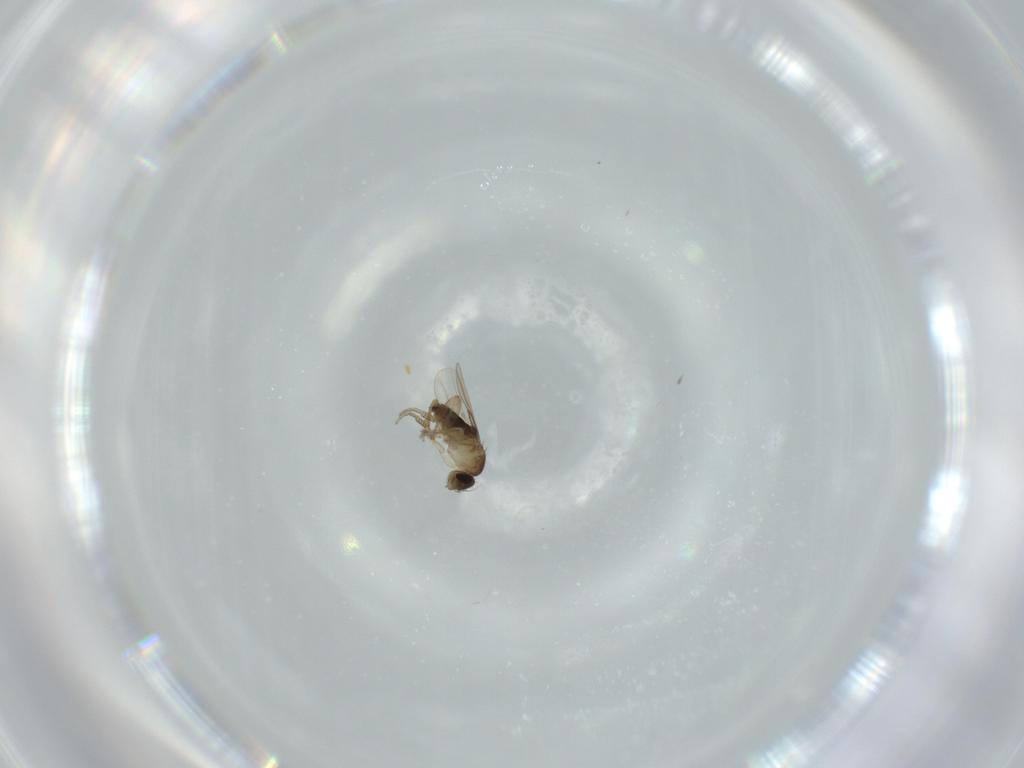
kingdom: Animalia
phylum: Arthropoda
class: Insecta
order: Diptera
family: Phoridae
